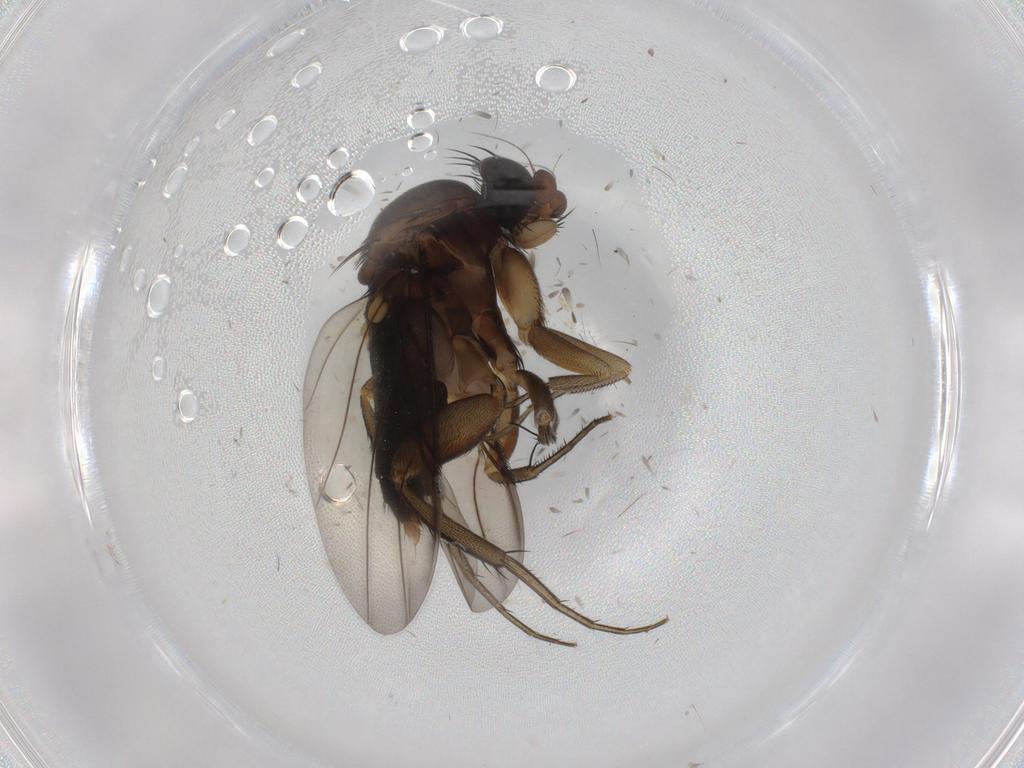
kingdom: Animalia
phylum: Arthropoda
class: Insecta
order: Diptera
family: Phoridae
